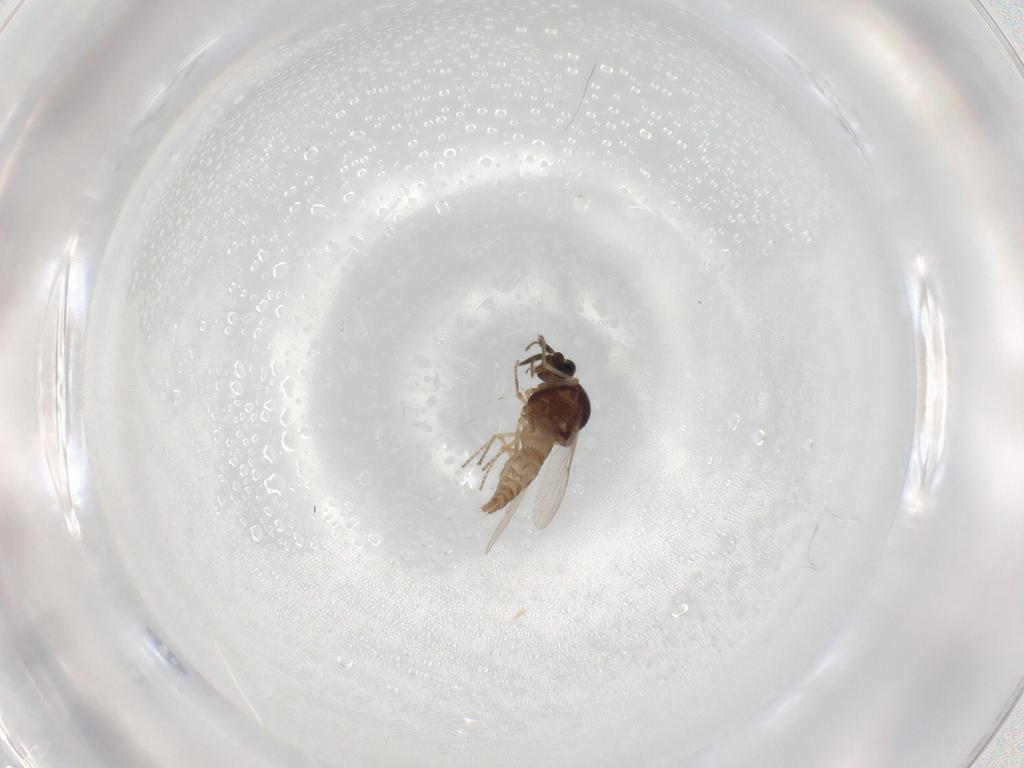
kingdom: Animalia
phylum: Arthropoda
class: Insecta
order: Diptera
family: Ceratopogonidae
